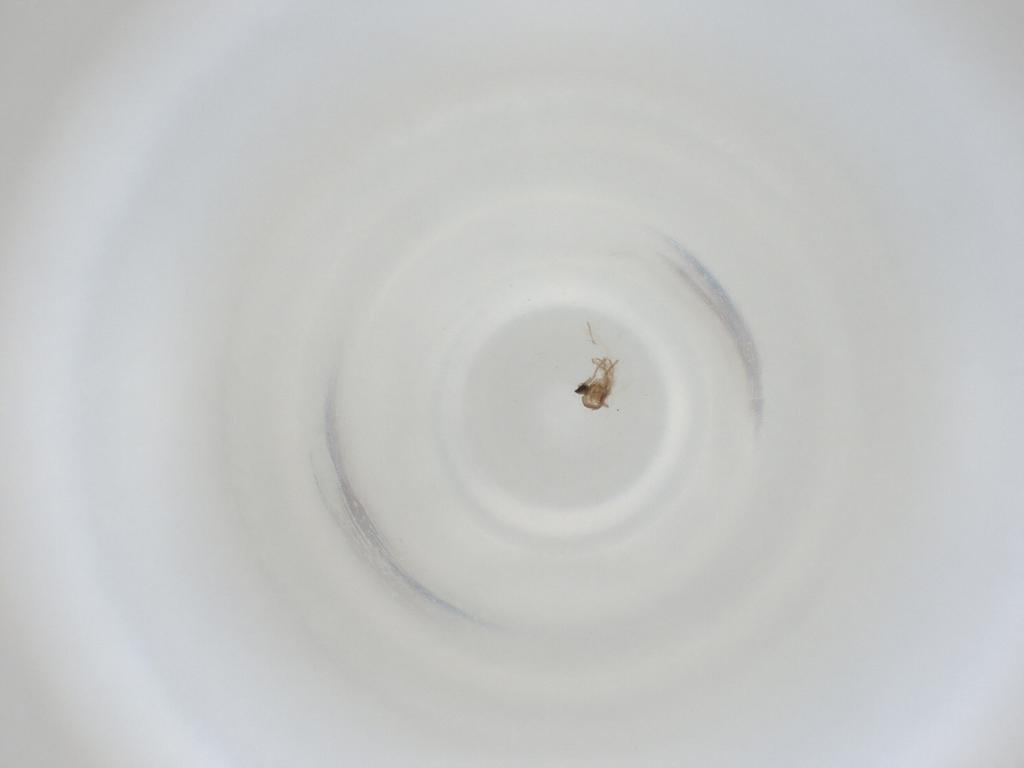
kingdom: Animalia
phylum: Arthropoda
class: Insecta
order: Diptera
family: Cecidomyiidae
